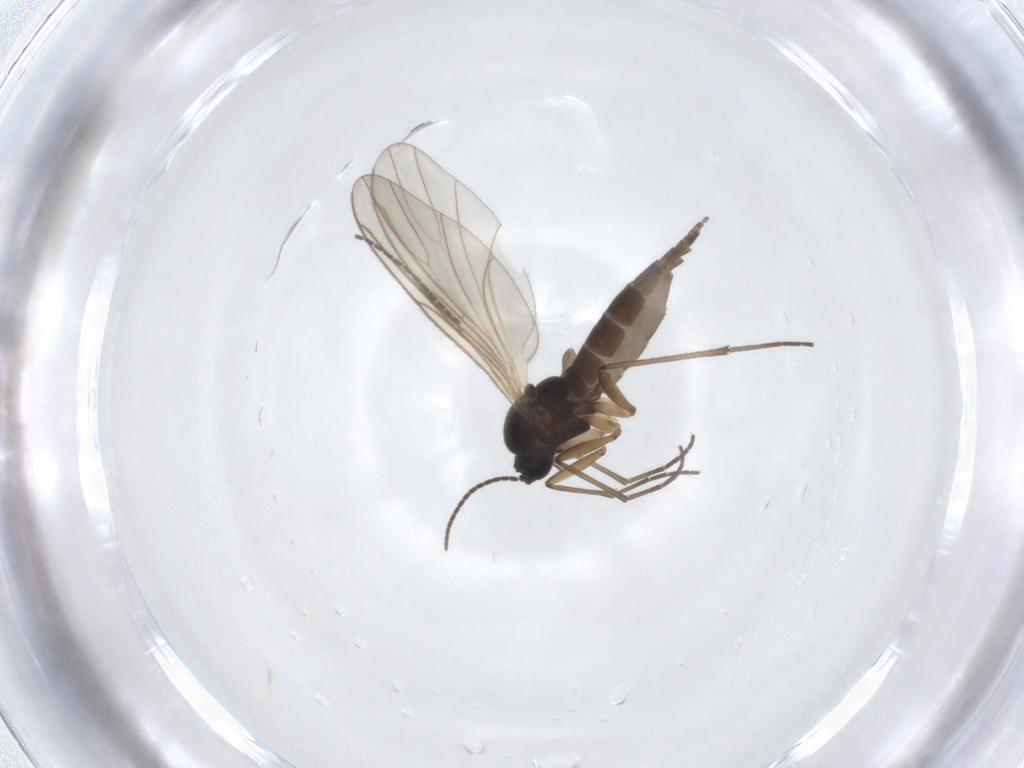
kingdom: Animalia
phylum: Arthropoda
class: Insecta
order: Diptera
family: Sciaridae
